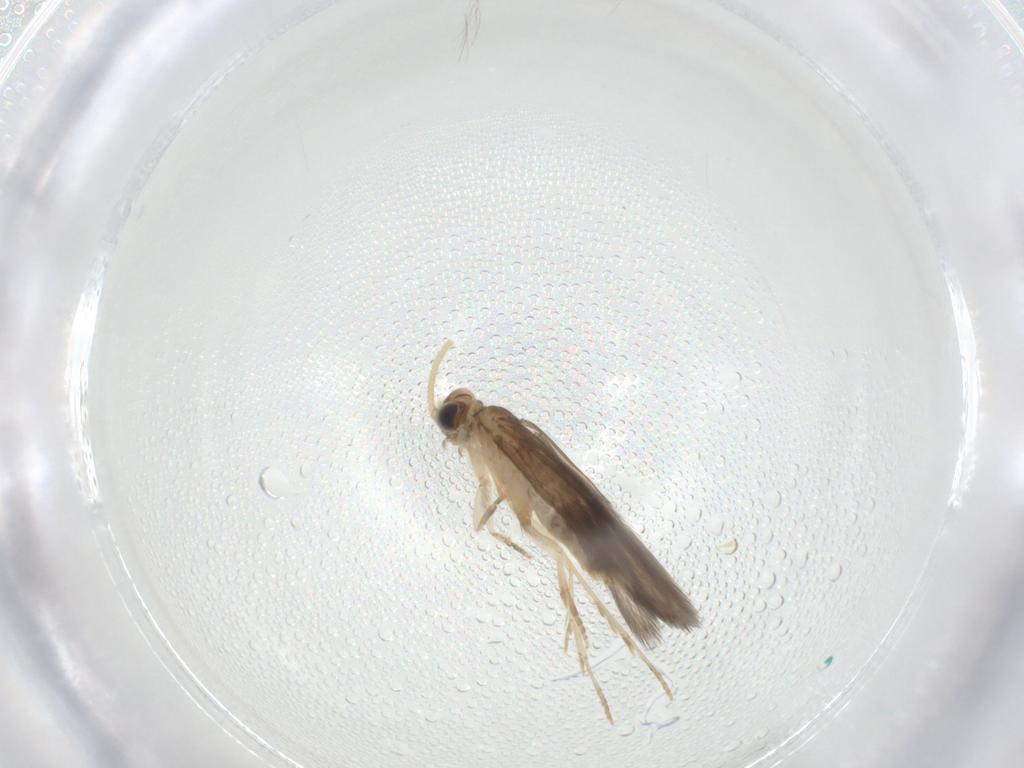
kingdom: Animalia
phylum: Arthropoda
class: Insecta
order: Trichoptera
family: Hydroptilidae
